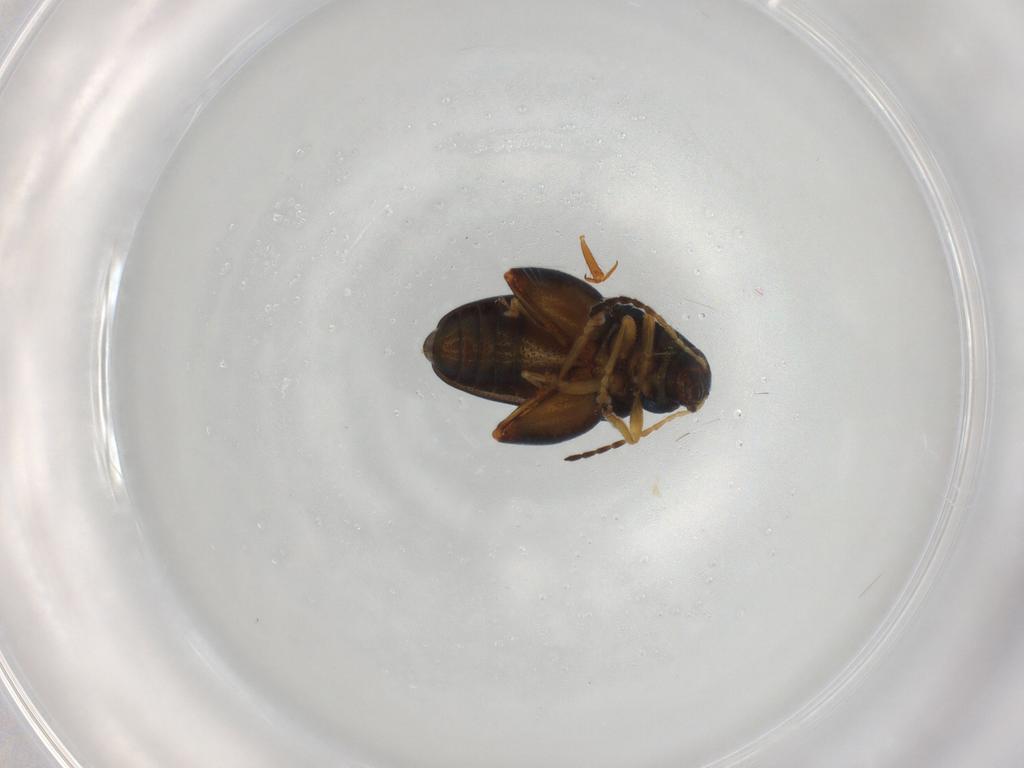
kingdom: Animalia
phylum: Arthropoda
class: Insecta
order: Coleoptera
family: Chrysomelidae
